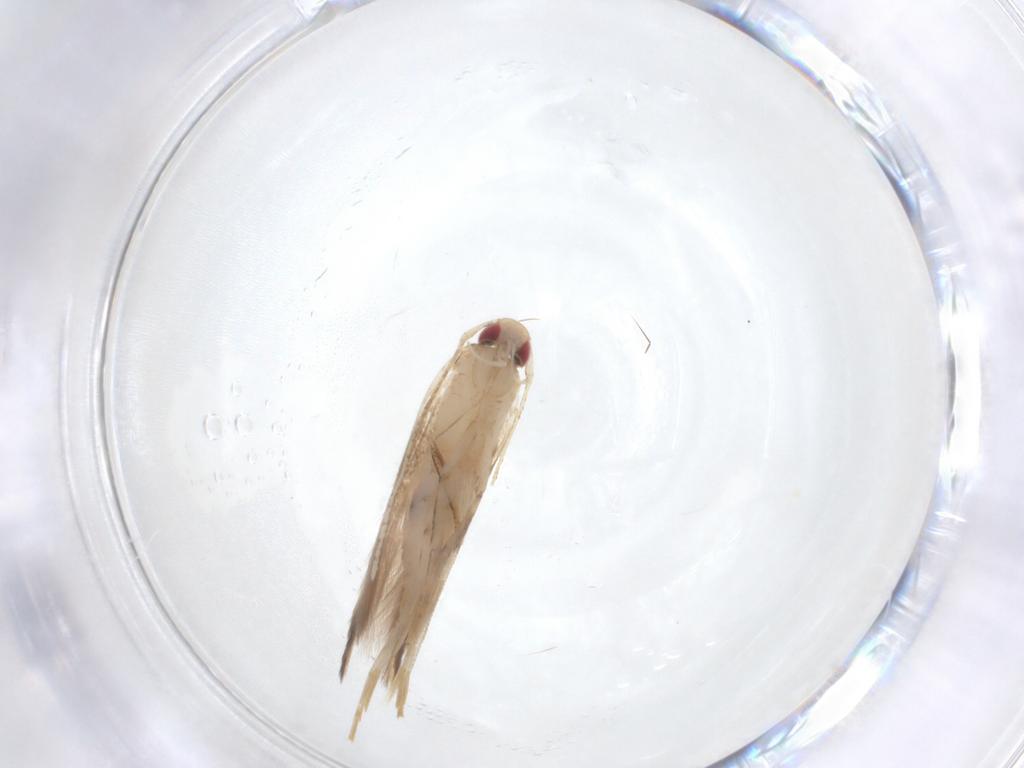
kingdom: Animalia
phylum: Arthropoda
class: Insecta
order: Lepidoptera
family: Cosmopterigidae
